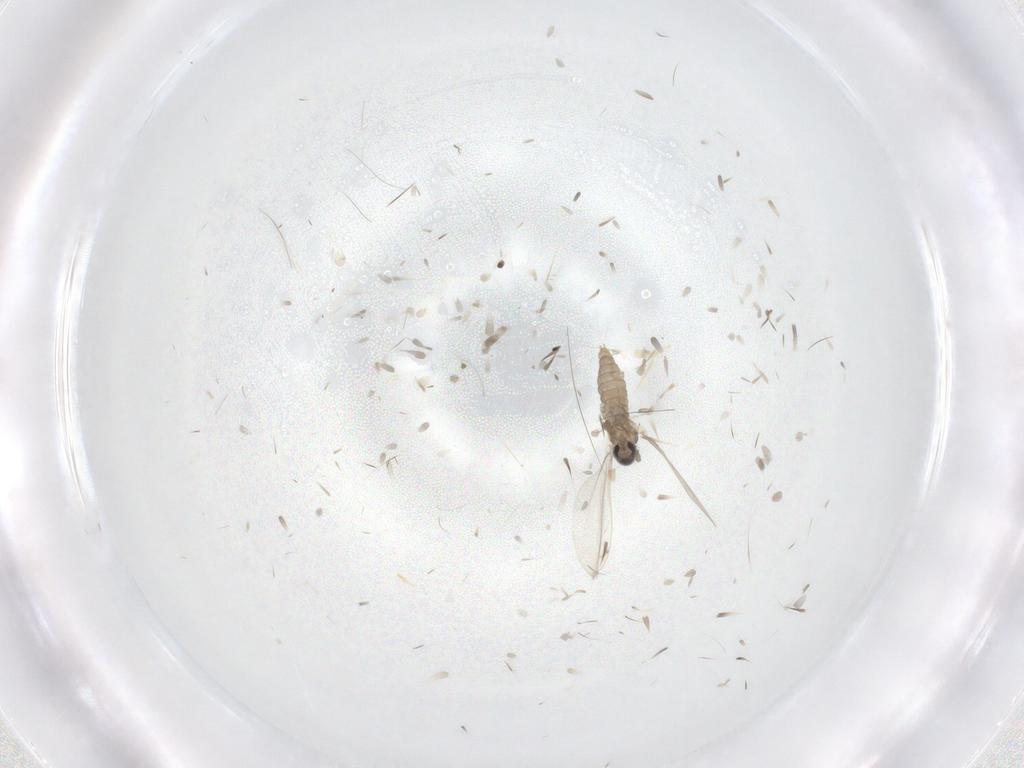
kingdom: Animalia
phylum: Arthropoda
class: Insecta
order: Diptera
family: Cecidomyiidae
